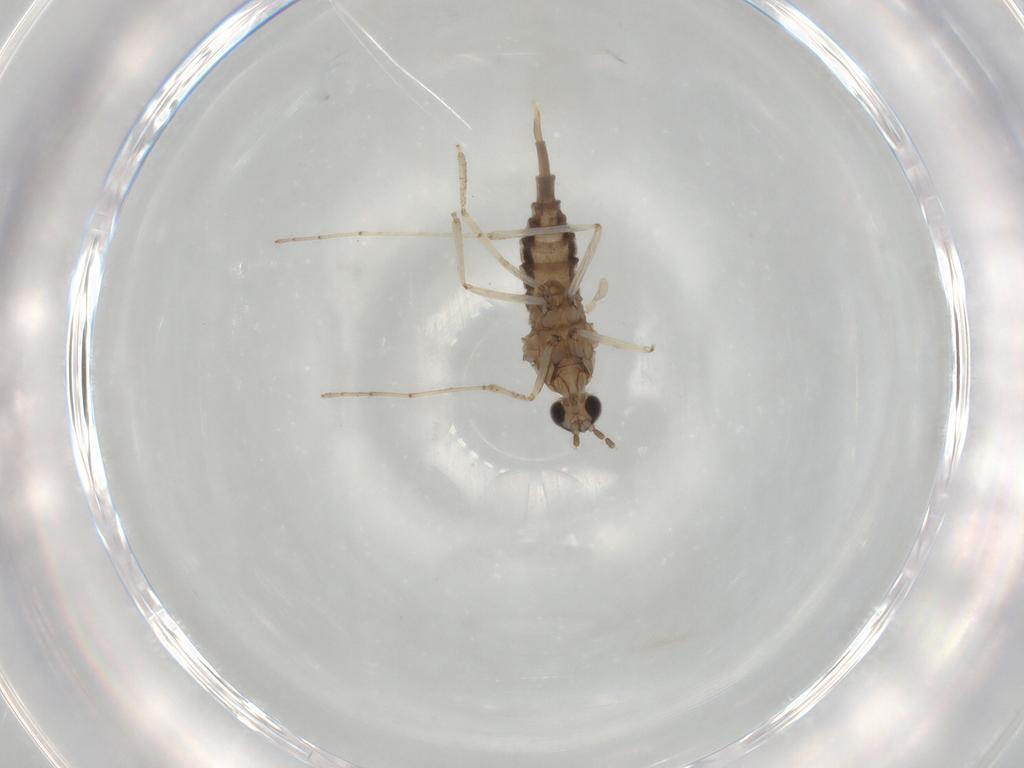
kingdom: Animalia
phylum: Arthropoda
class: Insecta
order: Diptera
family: Cecidomyiidae
